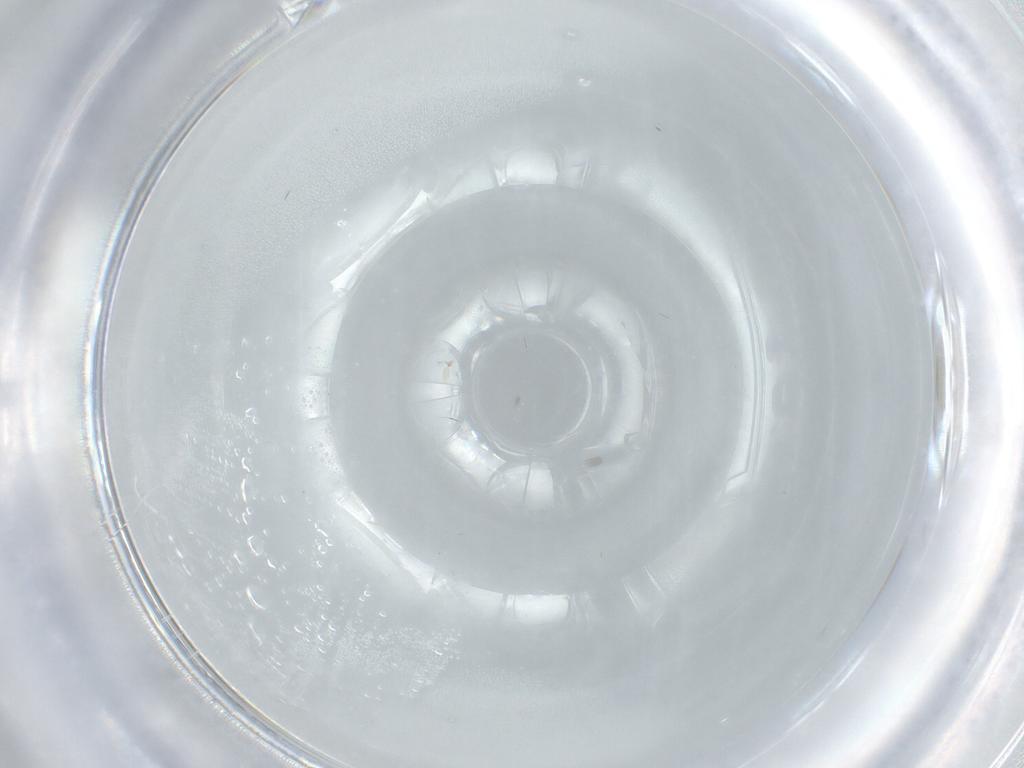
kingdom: Animalia
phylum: Arthropoda
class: Insecta
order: Hemiptera
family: Aleyrodidae
